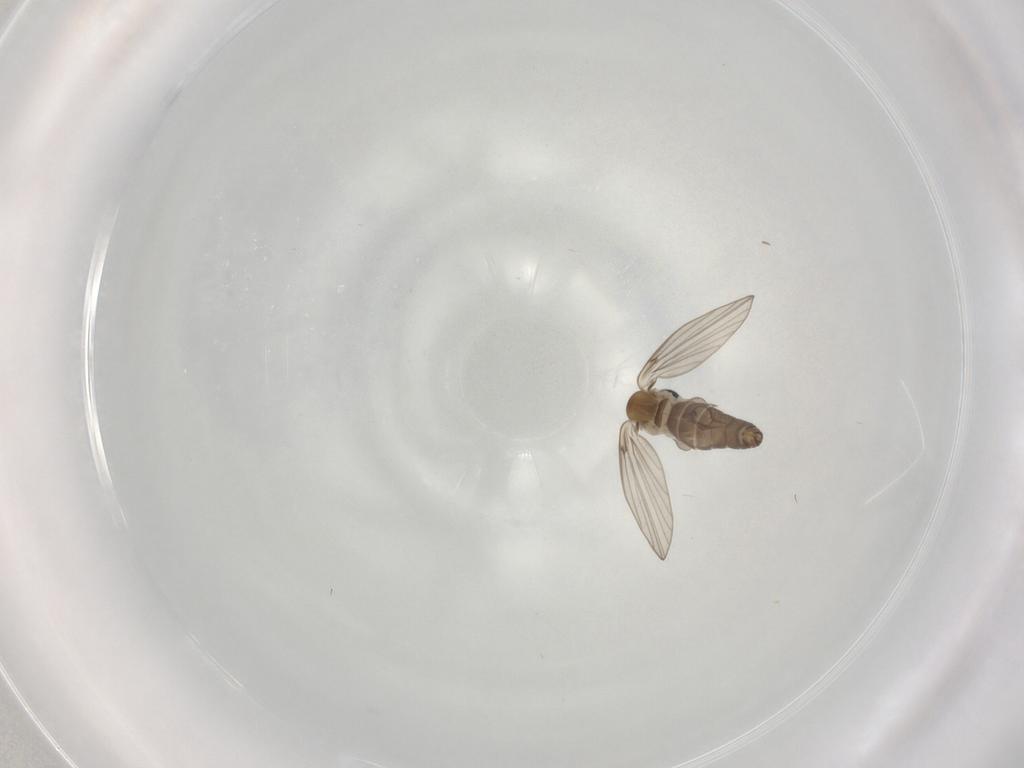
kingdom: Animalia
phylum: Arthropoda
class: Insecta
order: Diptera
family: Psychodidae
